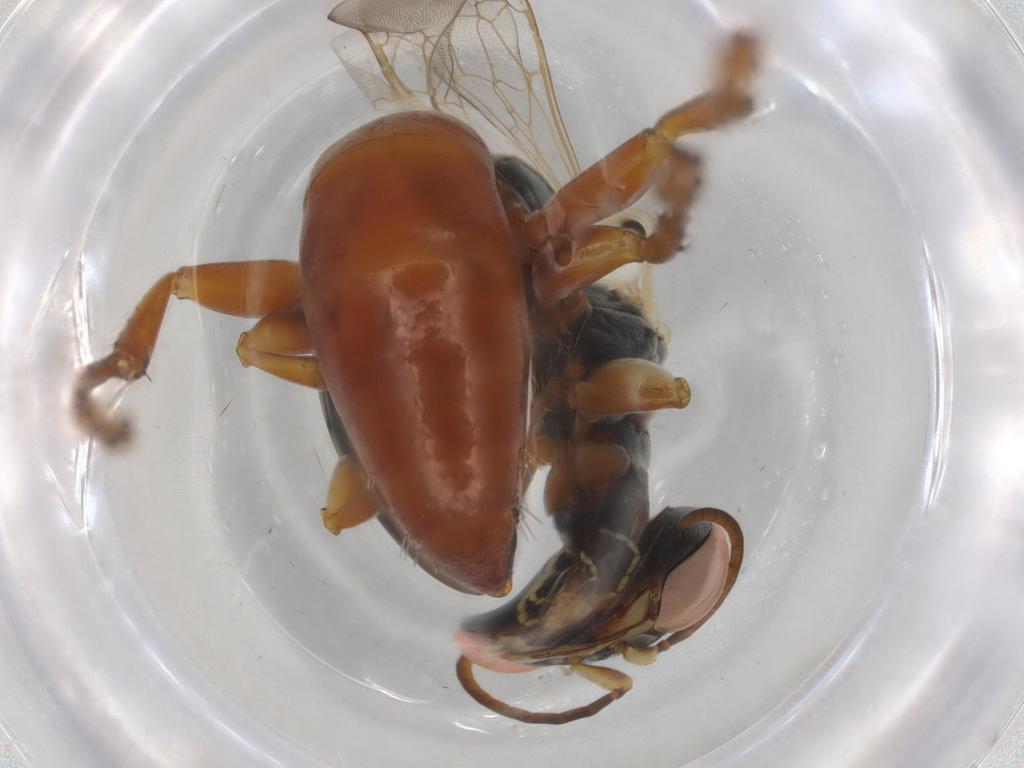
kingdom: Animalia
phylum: Arthropoda
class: Insecta
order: Hymenoptera
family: Crabronidae
